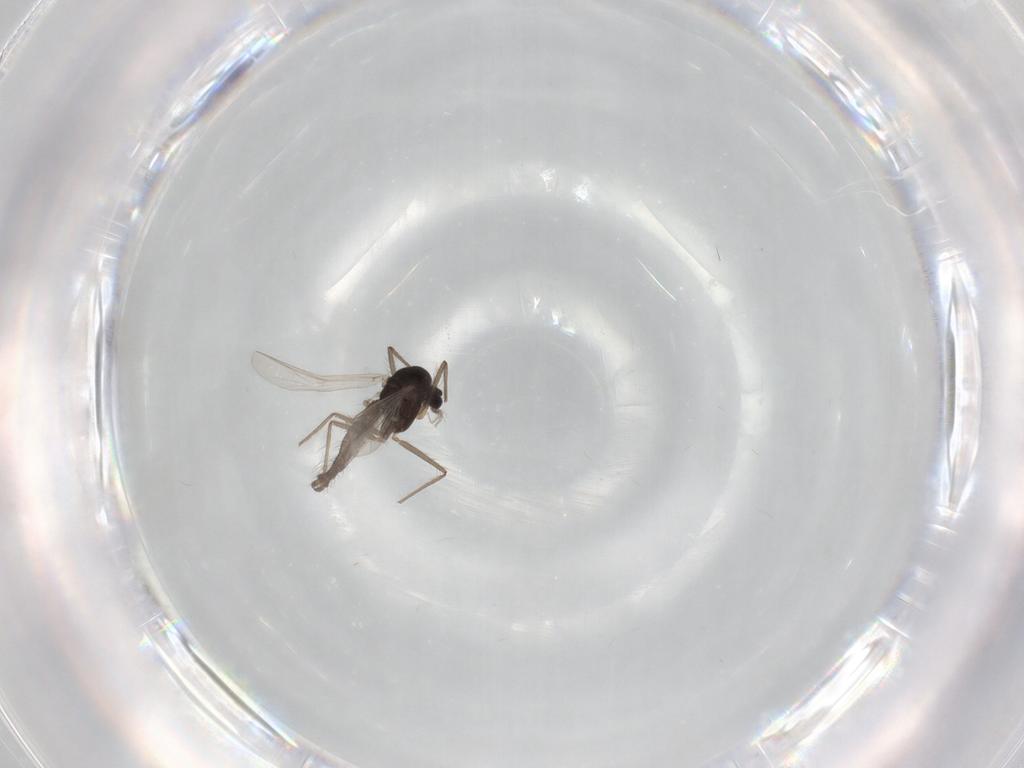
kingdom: Animalia
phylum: Arthropoda
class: Insecta
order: Diptera
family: Chironomidae
